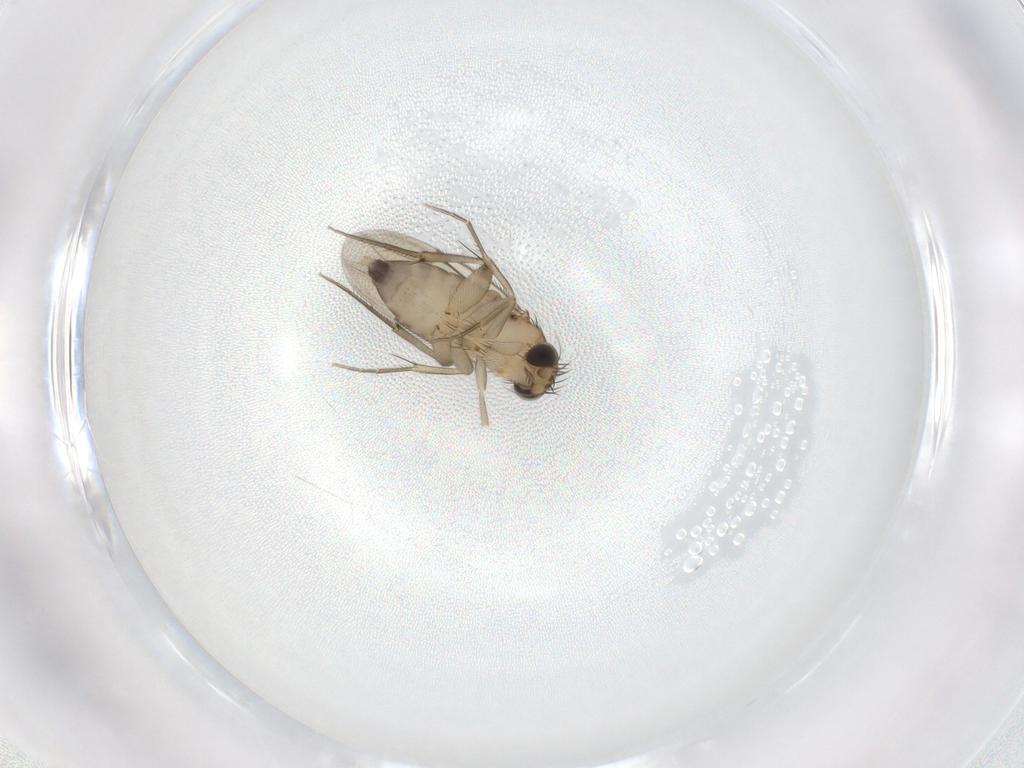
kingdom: Animalia
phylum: Arthropoda
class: Insecta
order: Diptera
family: Phoridae
